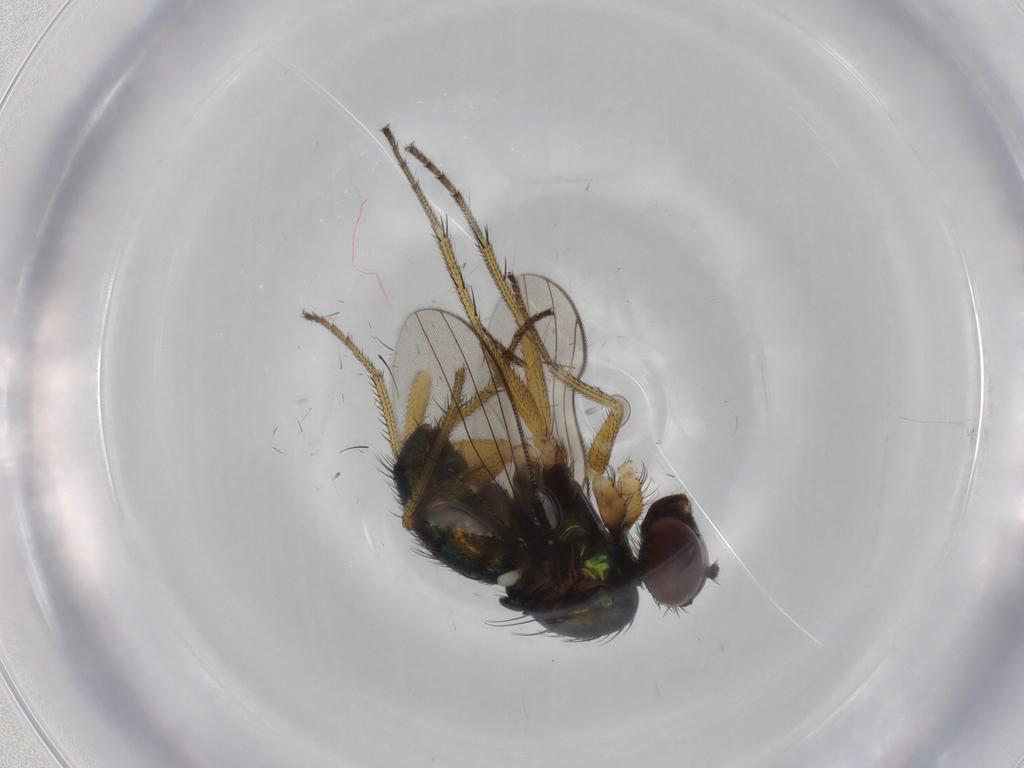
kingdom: Animalia
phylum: Arthropoda
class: Insecta
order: Diptera
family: Dolichopodidae
